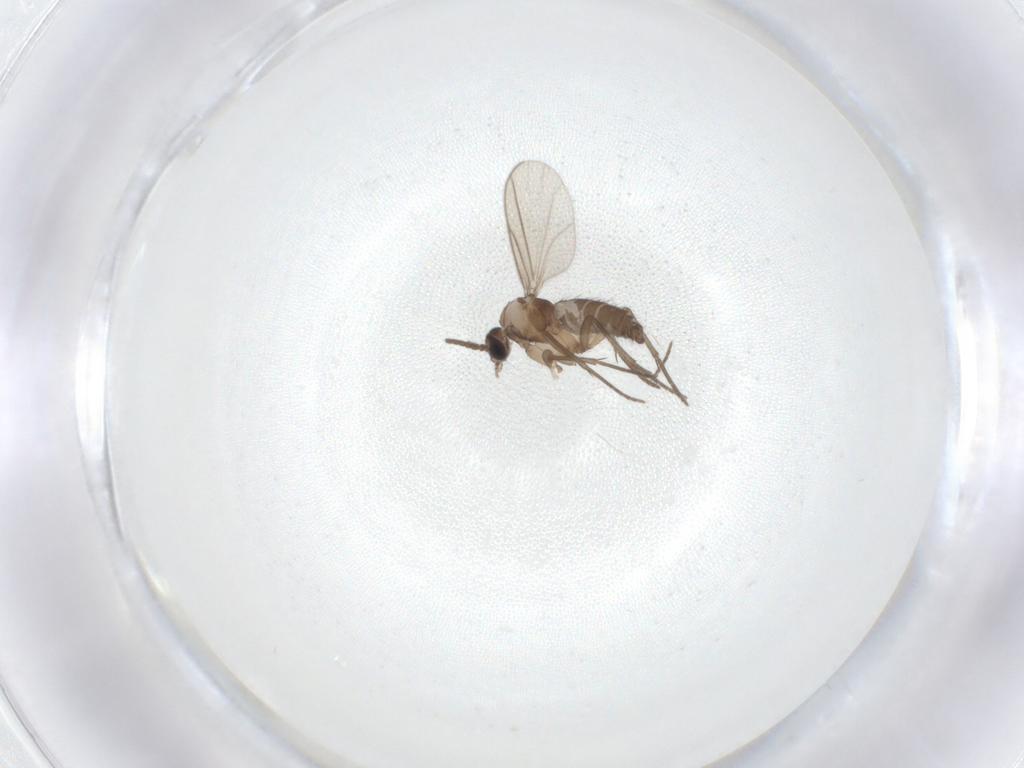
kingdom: Animalia
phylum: Arthropoda
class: Insecta
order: Diptera
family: Sciaridae
